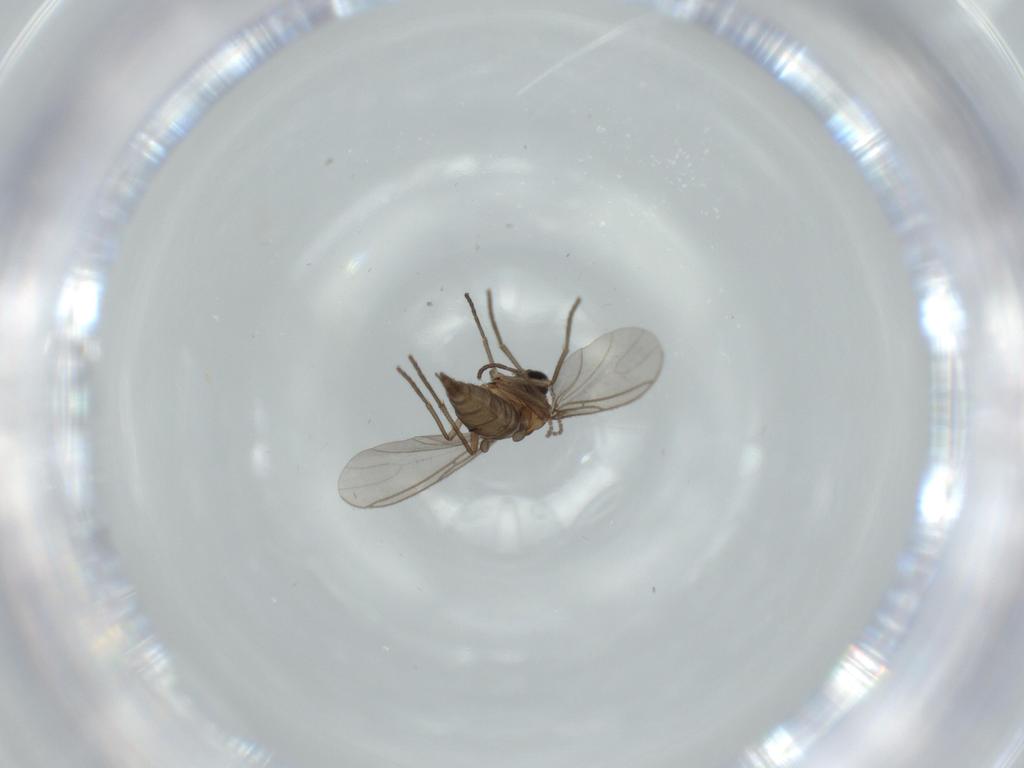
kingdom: Animalia
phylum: Arthropoda
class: Insecta
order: Diptera
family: Sciaridae
